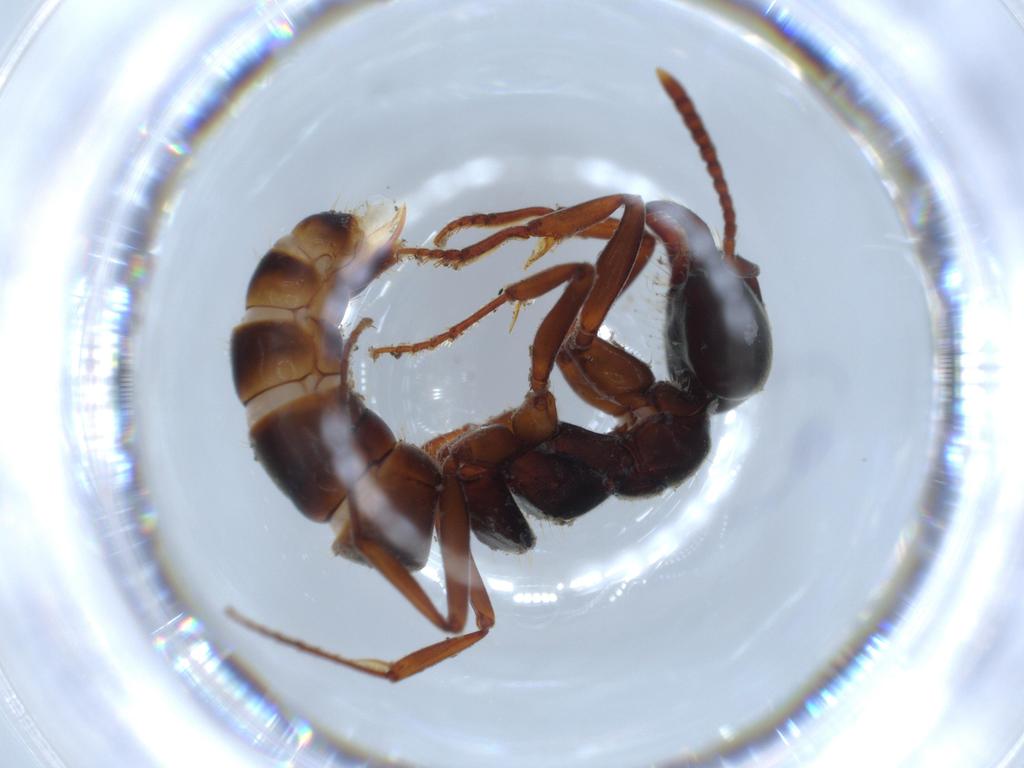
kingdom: Animalia
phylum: Arthropoda
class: Insecta
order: Hymenoptera
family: Formicidae
